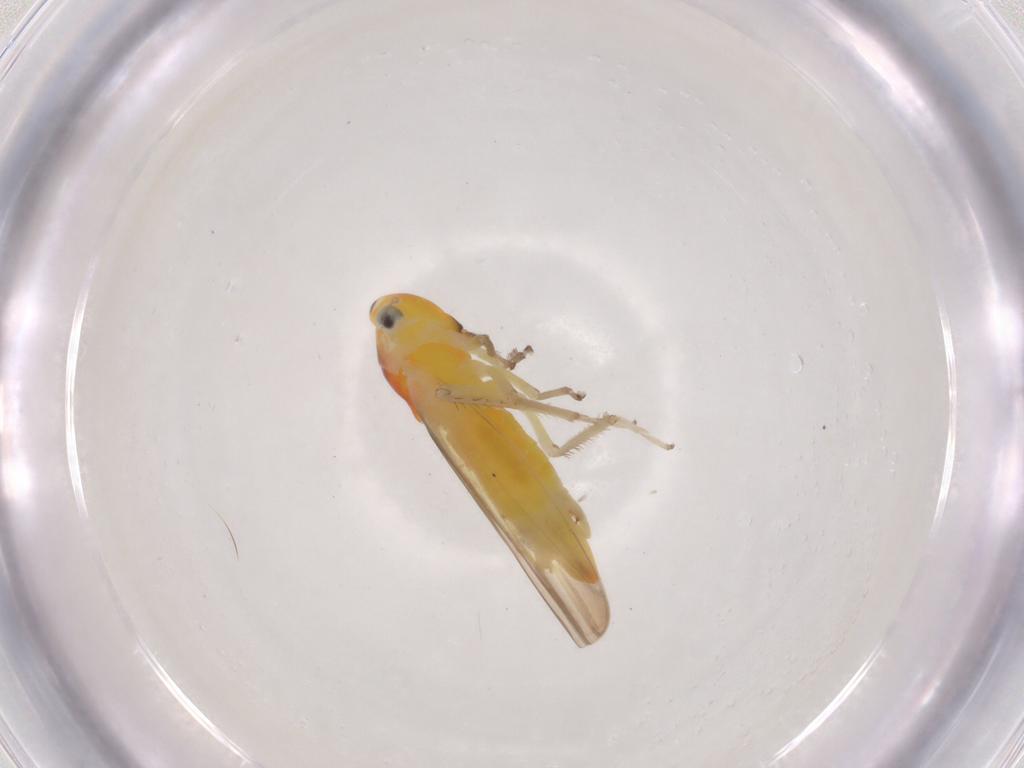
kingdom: Animalia
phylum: Arthropoda
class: Insecta
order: Hemiptera
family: Cicadellidae
